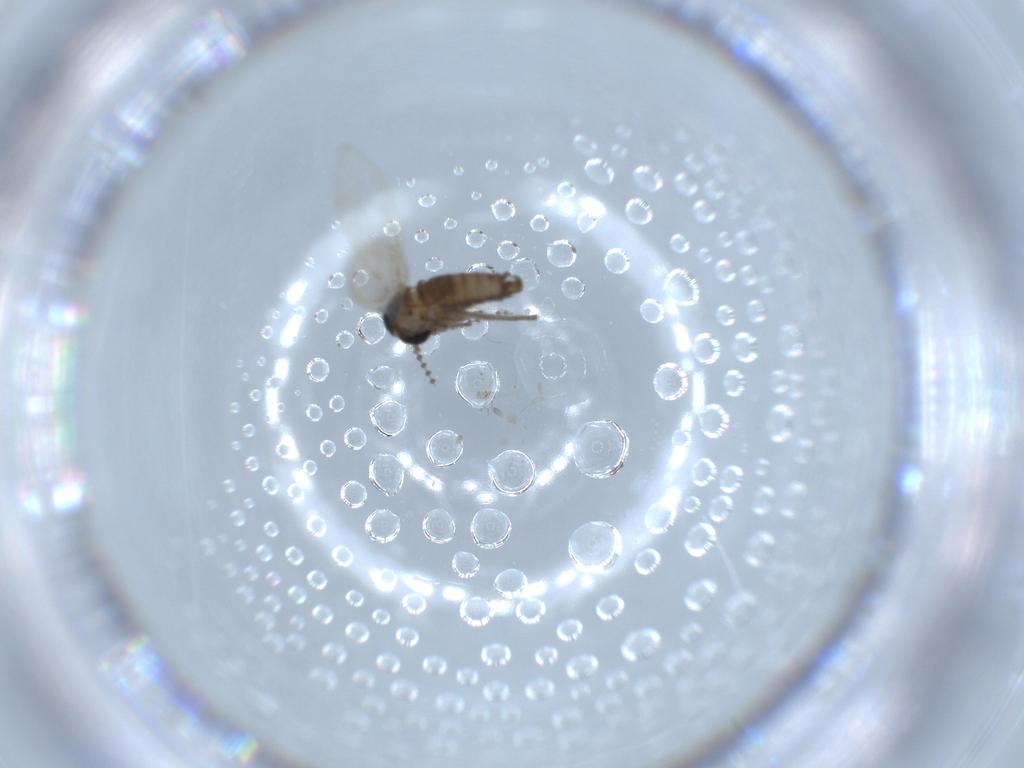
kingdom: Animalia
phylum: Arthropoda
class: Insecta
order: Diptera
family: Psychodidae
